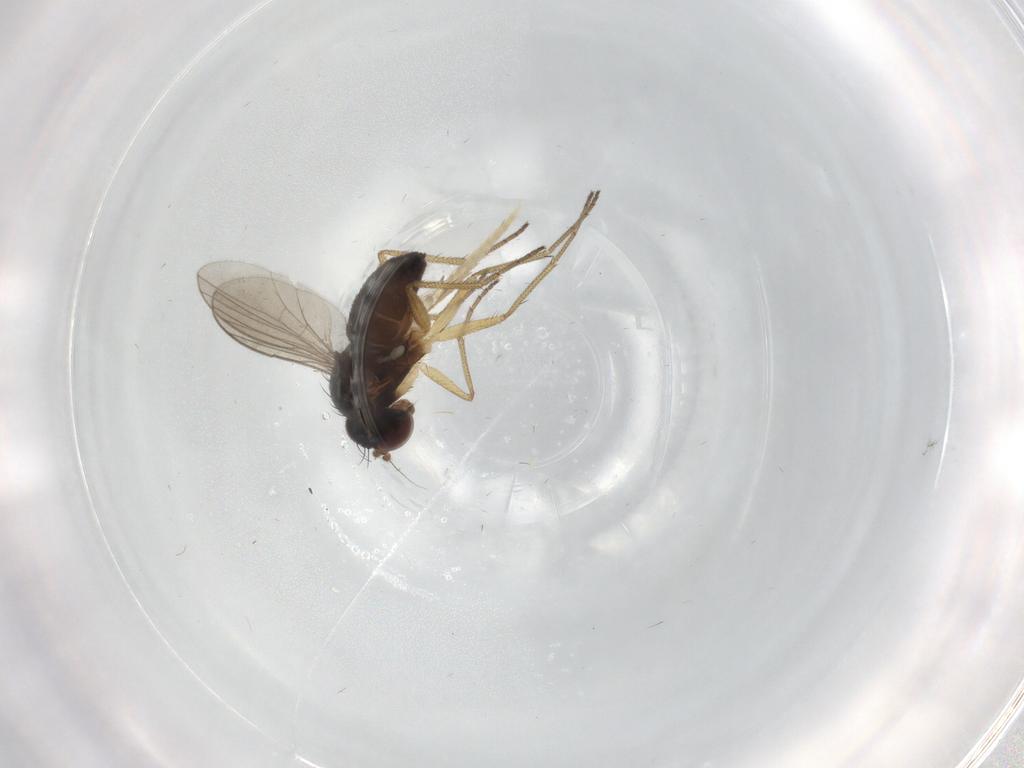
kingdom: Animalia
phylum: Arthropoda
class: Insecta
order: Diptera
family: Dolichopodidae
